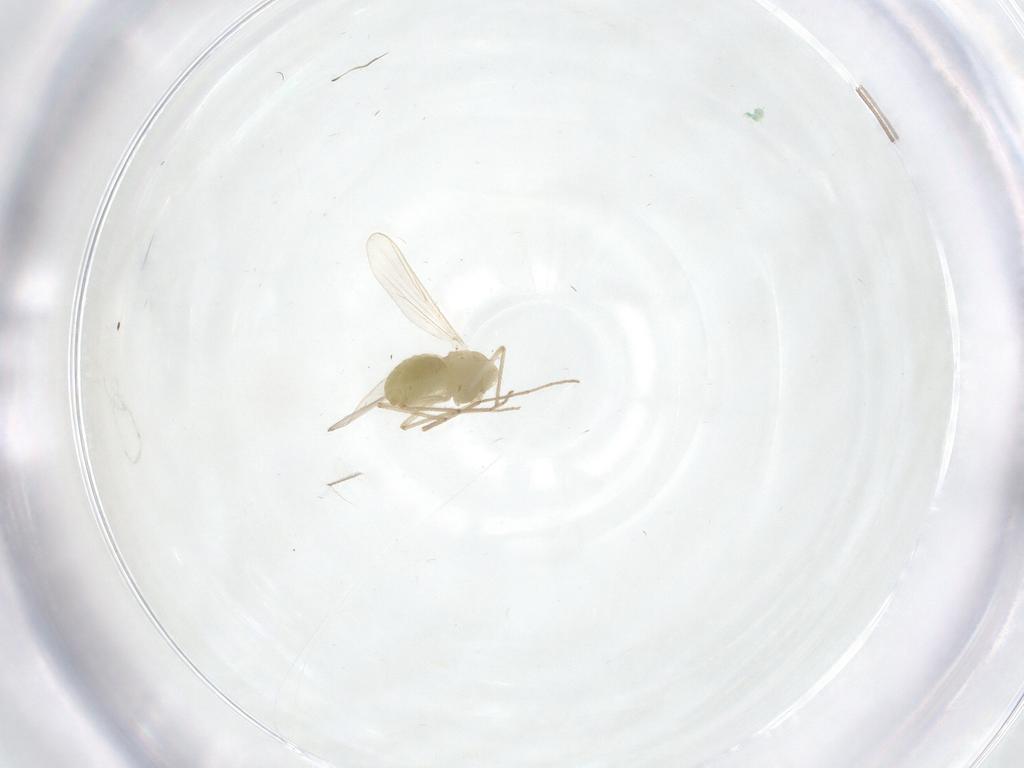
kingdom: Animalia
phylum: Arthropoda
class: Insecta
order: Diptera
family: Chironomidae
